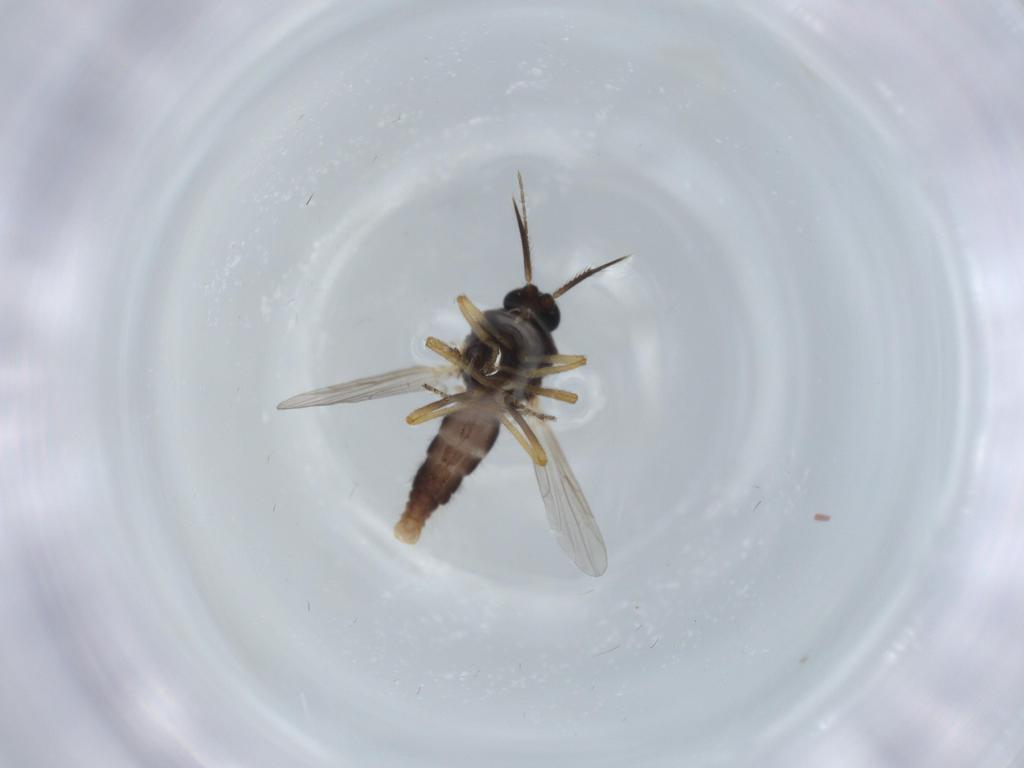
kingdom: Animalia
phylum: Arthropoda
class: Insecta
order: Diptera
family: Ceratopogonidae
